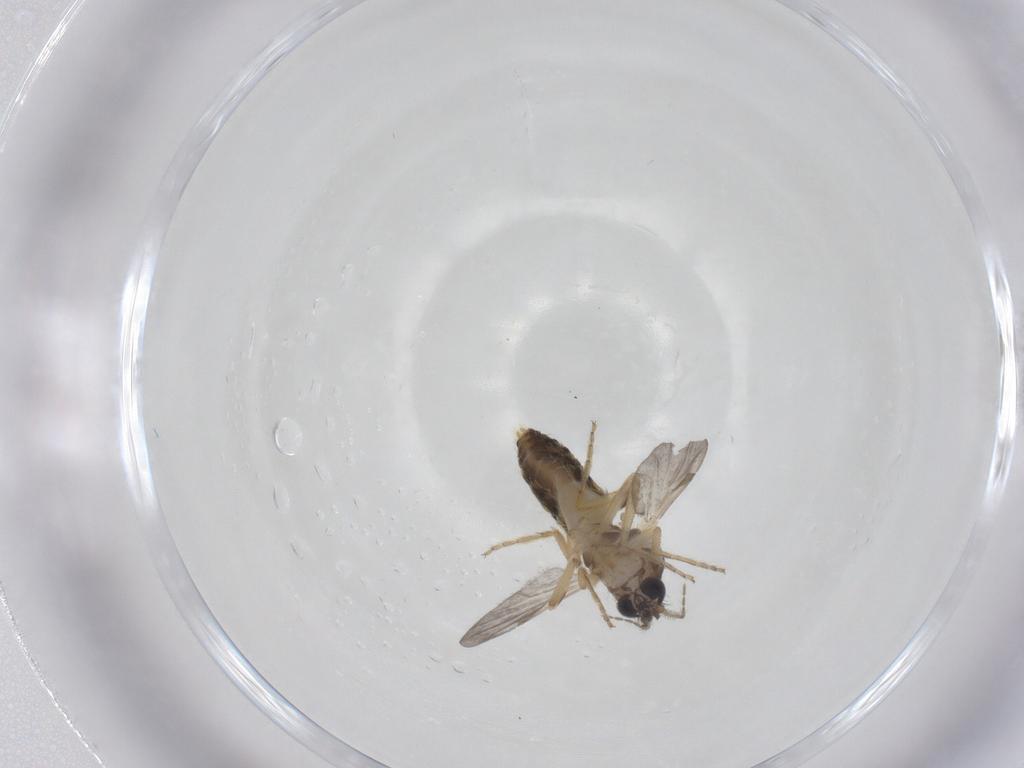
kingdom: Animalia
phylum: Arthropoda
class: Insecta
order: Diptera
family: Ceratopogonidae
